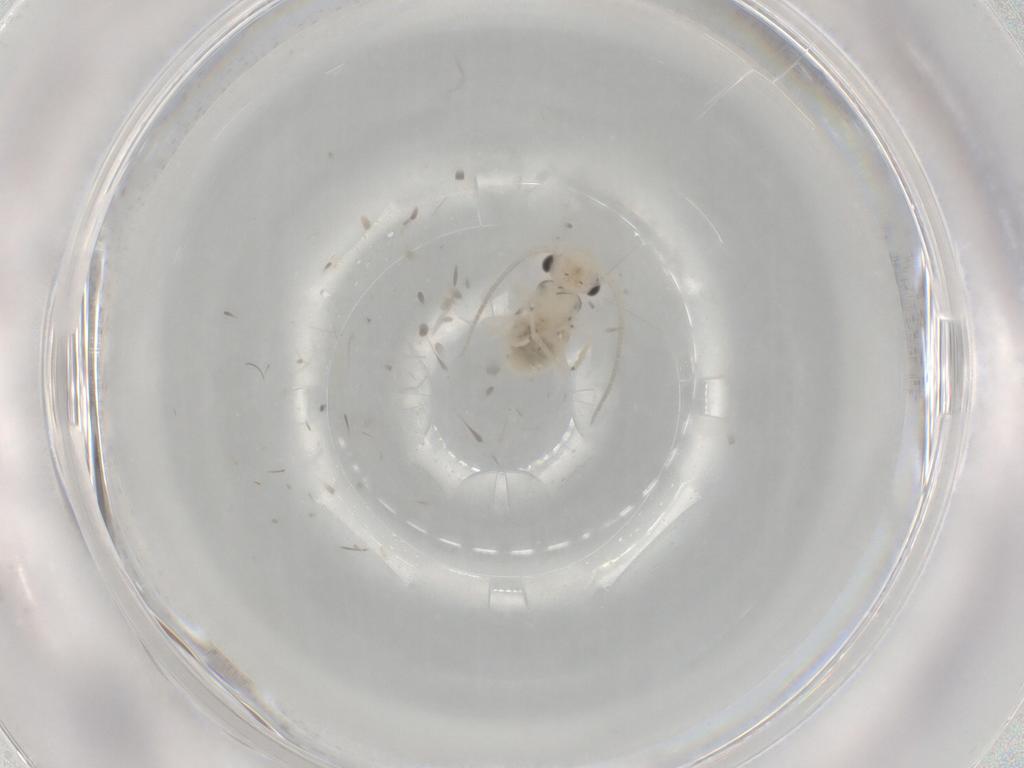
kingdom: Animalia
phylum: Arthropoda
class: Insecta
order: Psocodea
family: Caeciliusidae
